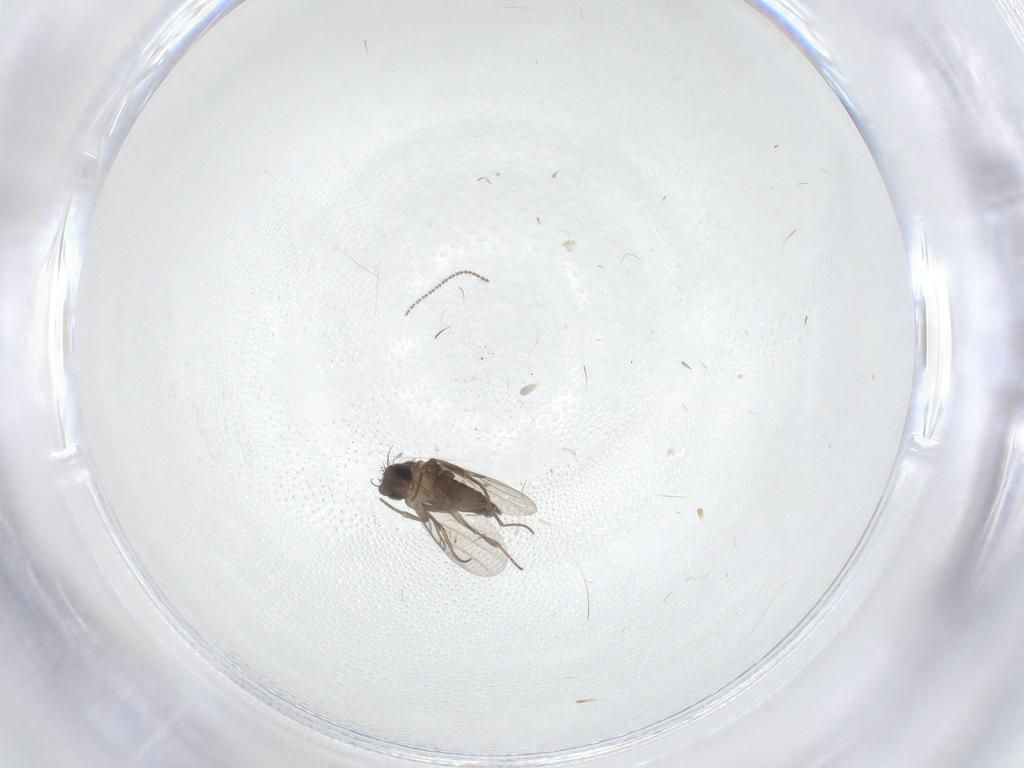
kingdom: Animalia
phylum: Arthropoda
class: Insecta
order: Diptera
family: Phoridae
